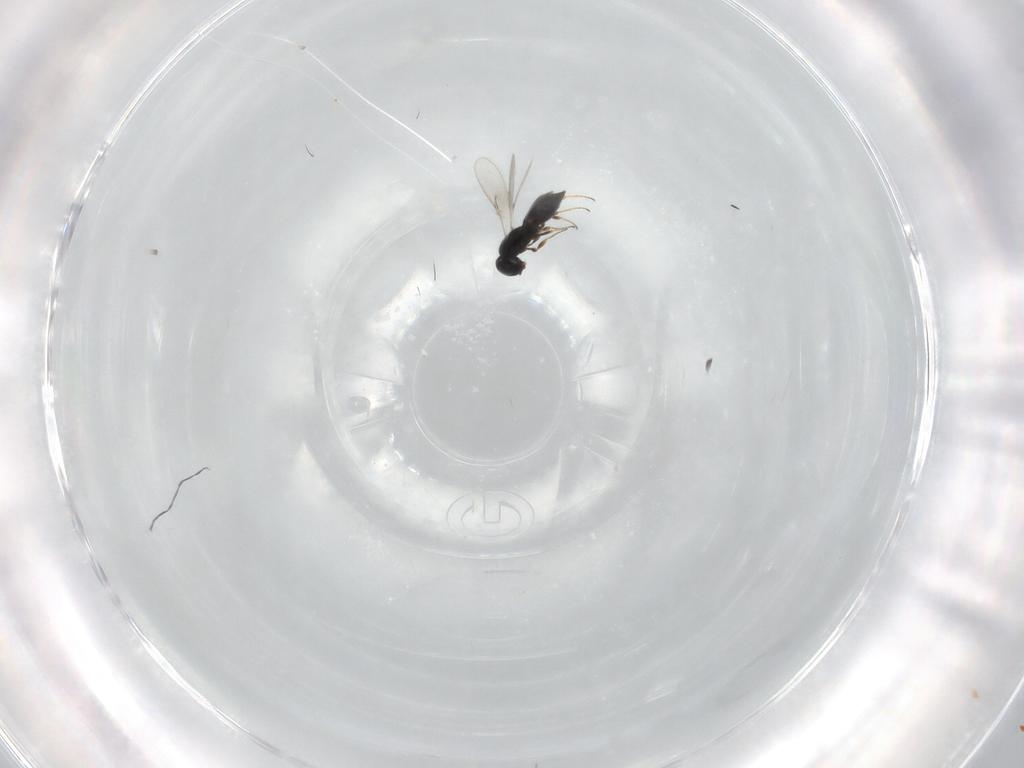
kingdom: Animalia
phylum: Arthropoda
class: Insecta
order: Hymenoptera
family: Scelionidae
